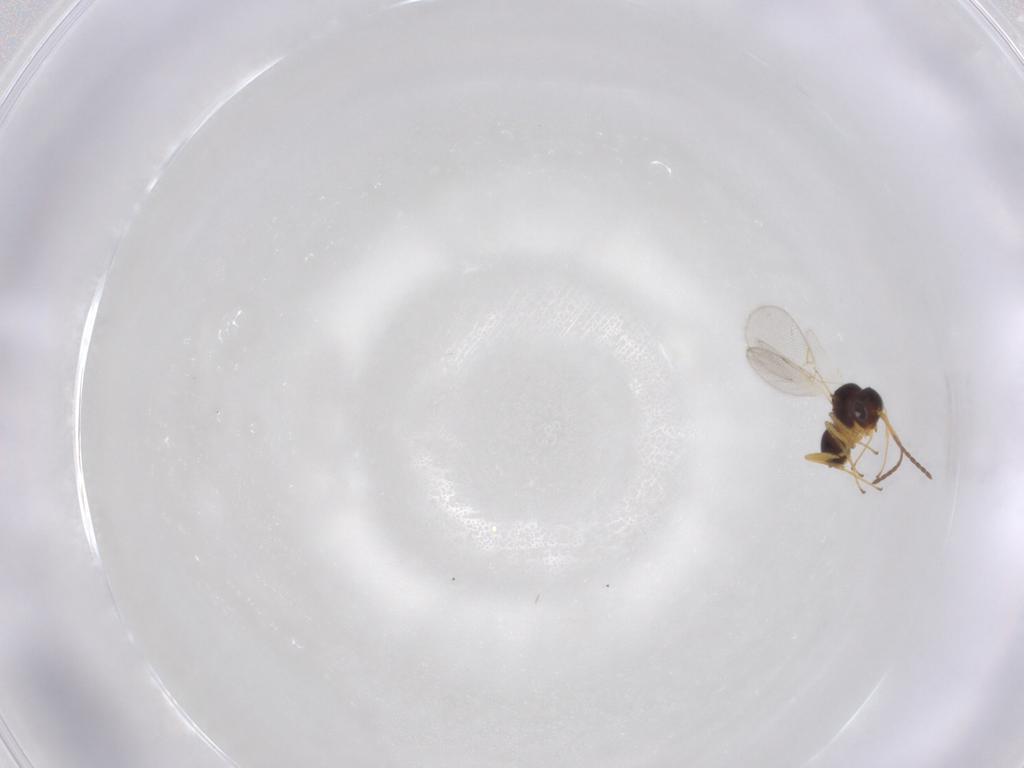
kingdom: Animalia
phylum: Arthropoda
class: Insecta
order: Hymenoptera
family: Figitidae
